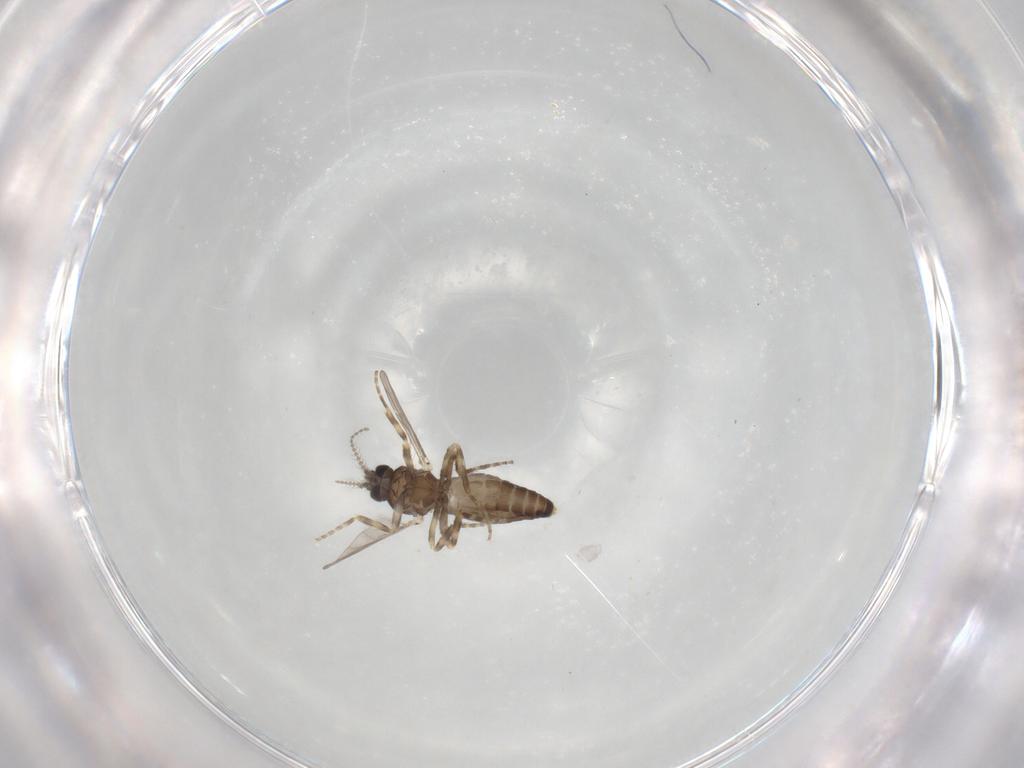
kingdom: Animalia
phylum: Arthropoda
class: Insecta
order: Diptera
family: Ceratopogonidae
